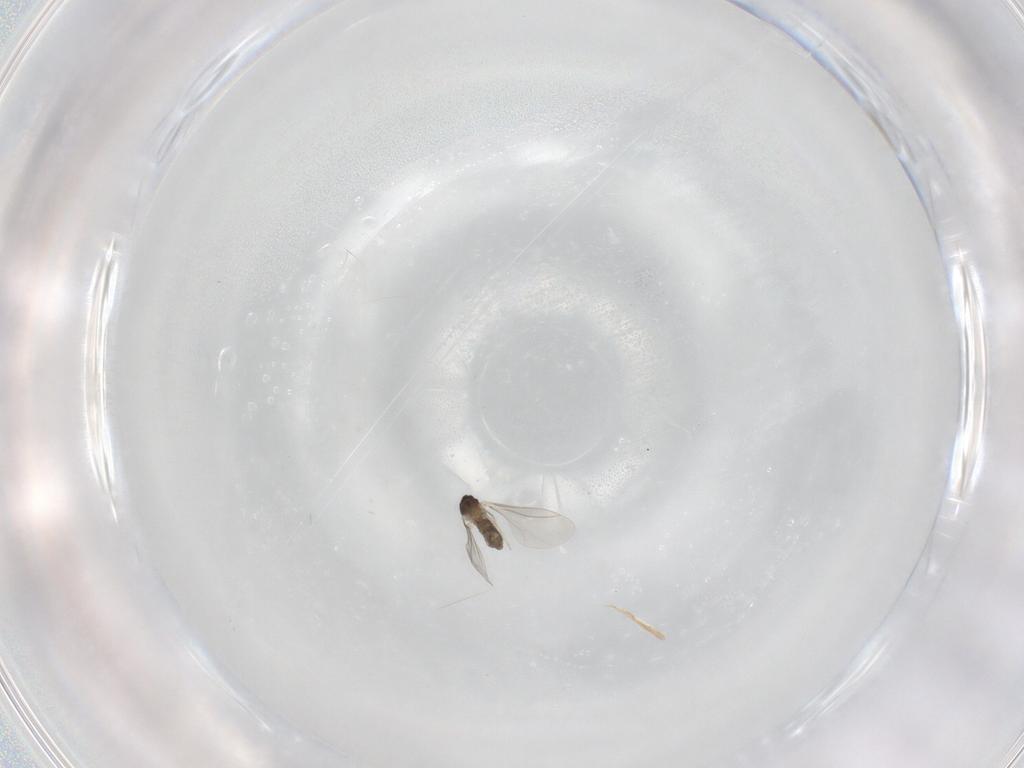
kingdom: Animalia
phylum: Arthropoda
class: Insecta
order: Diptera
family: Cecidomyiidae
